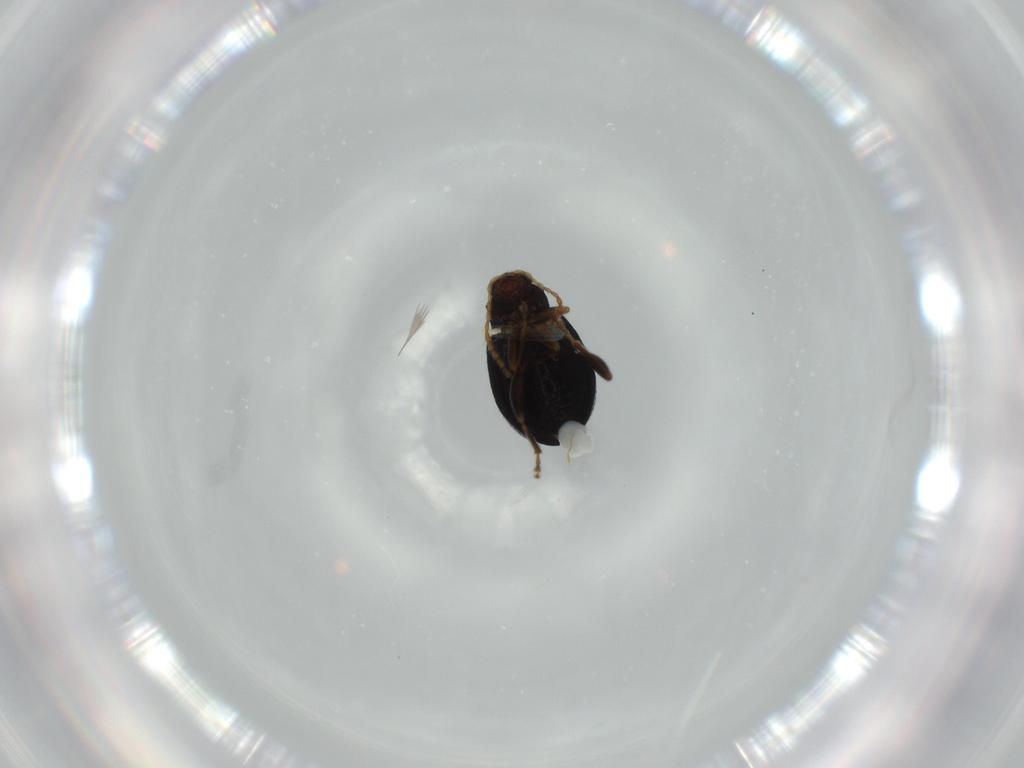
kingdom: Animalia
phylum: Arthropoda
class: Insecta
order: Coleoptera
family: Chrysomelidae
